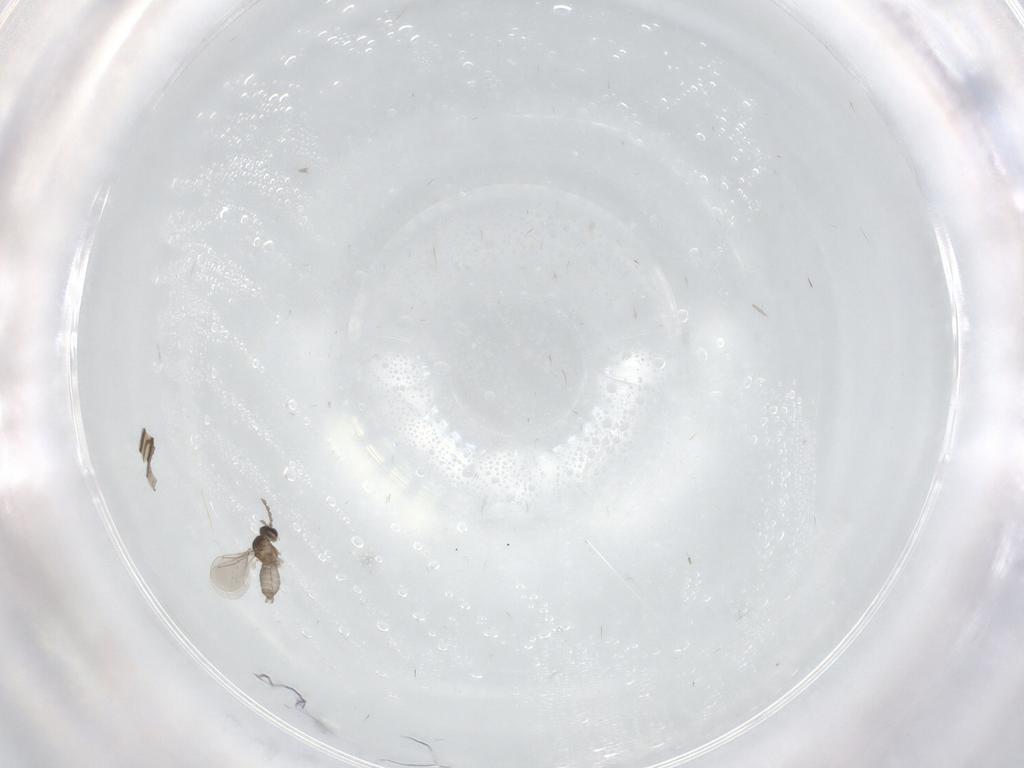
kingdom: Animalia
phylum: Arthropoda
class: Insecta
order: Diptera
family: Cecidomyiidae
